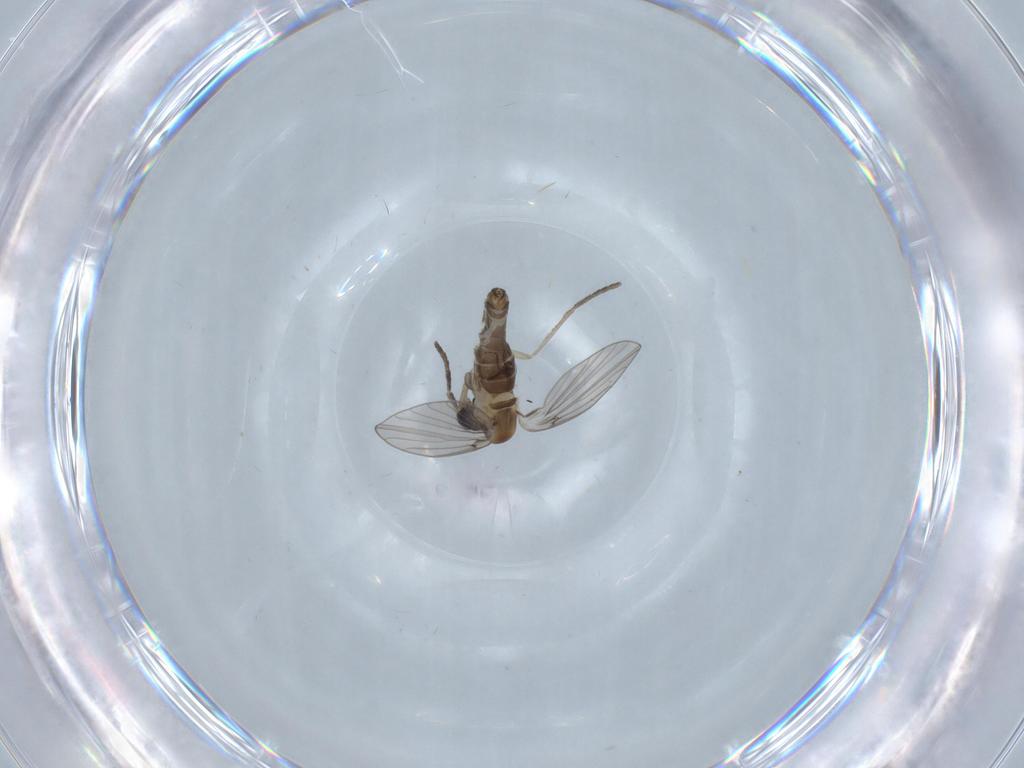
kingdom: Animalia
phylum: Arthropoda
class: Insecta
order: Diptera
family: Psychodidae
